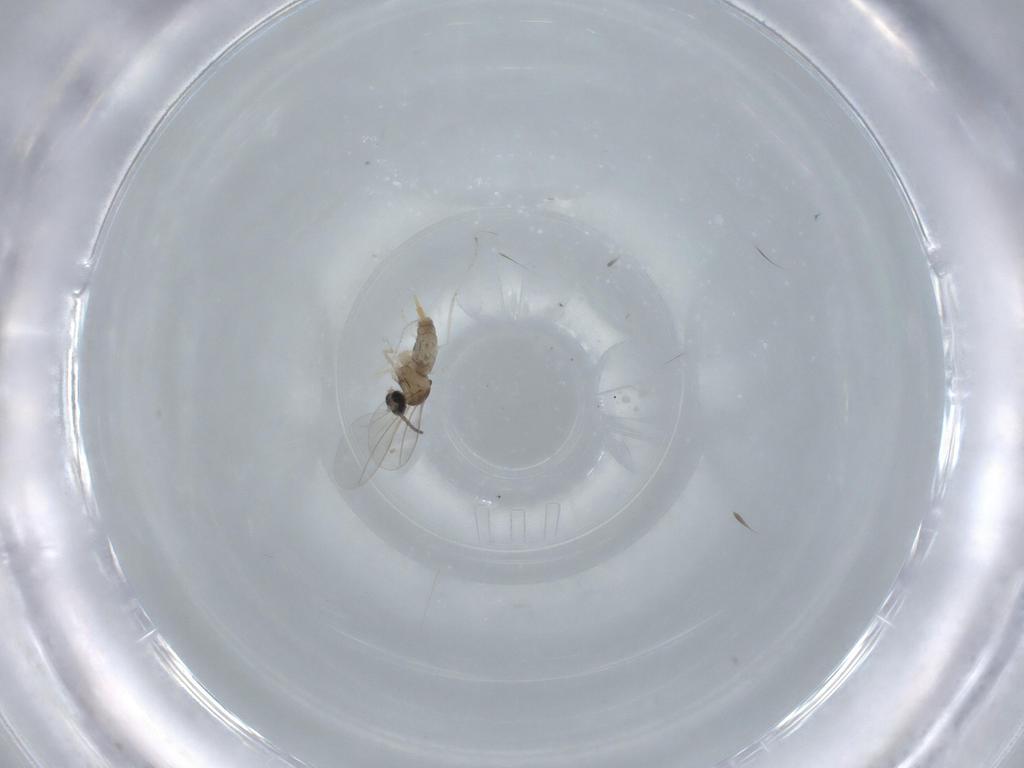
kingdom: Animalia
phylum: Arthropoda
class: Insecta
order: Diptera
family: Cecidomyiidae
